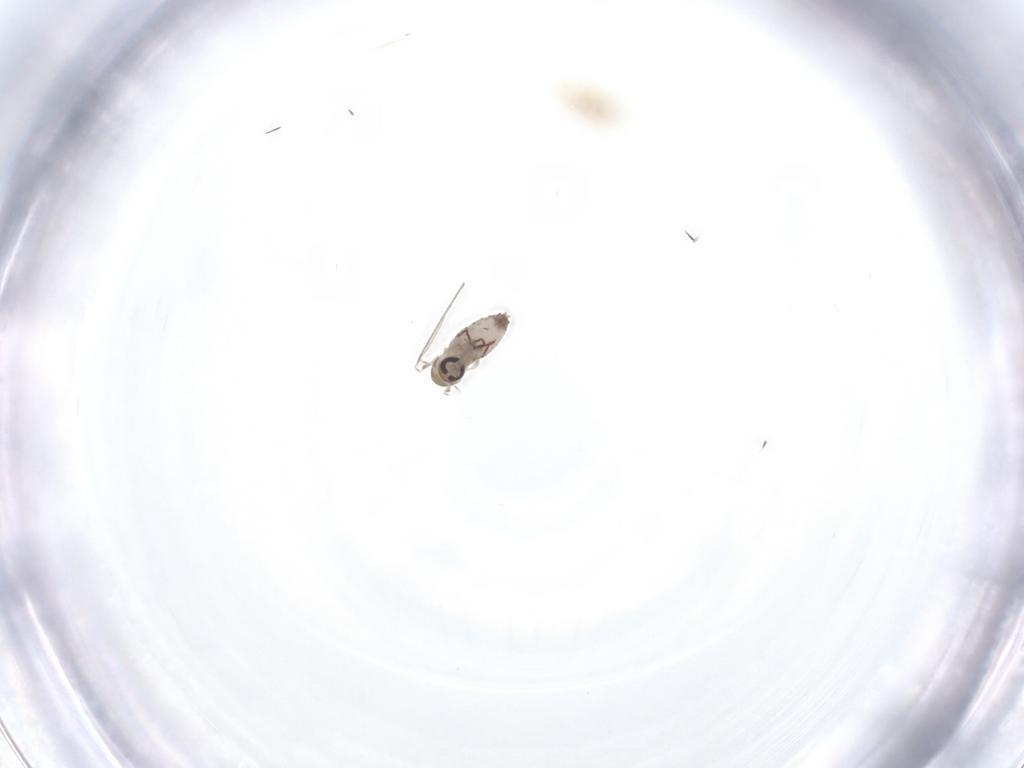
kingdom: Animalia
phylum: Arthropoda
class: Insecta
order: Diptera
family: Psychodidae
